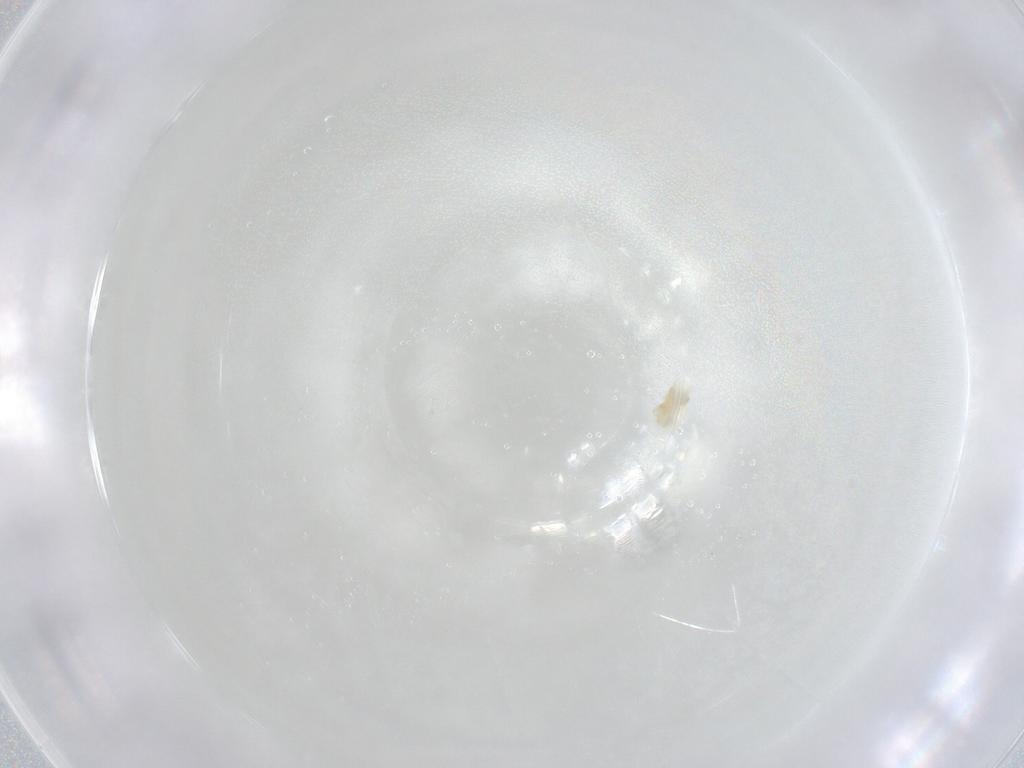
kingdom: Animalia
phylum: Arthropoda
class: Arachnida
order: Trombidiformes
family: Eupodidae
